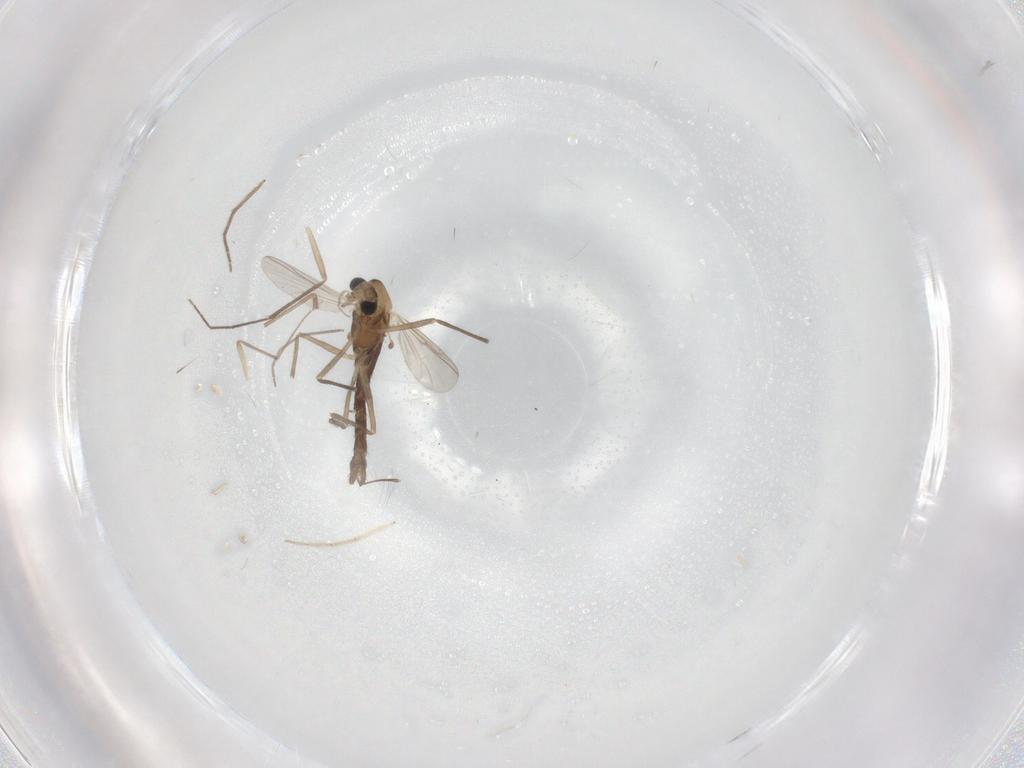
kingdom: Animalia
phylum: Arthropoda
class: Insecta
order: Diptera
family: Chironomidae
